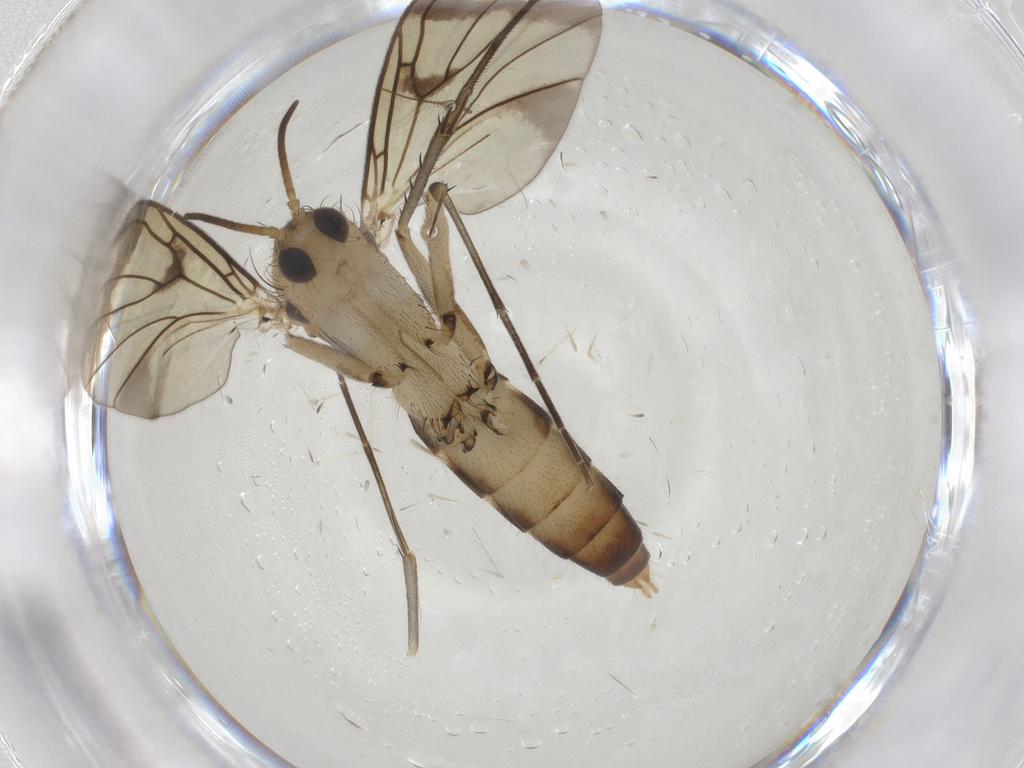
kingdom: Animalia
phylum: Arthropoda
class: Insecta
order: Diptera
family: Mycetophilidae
